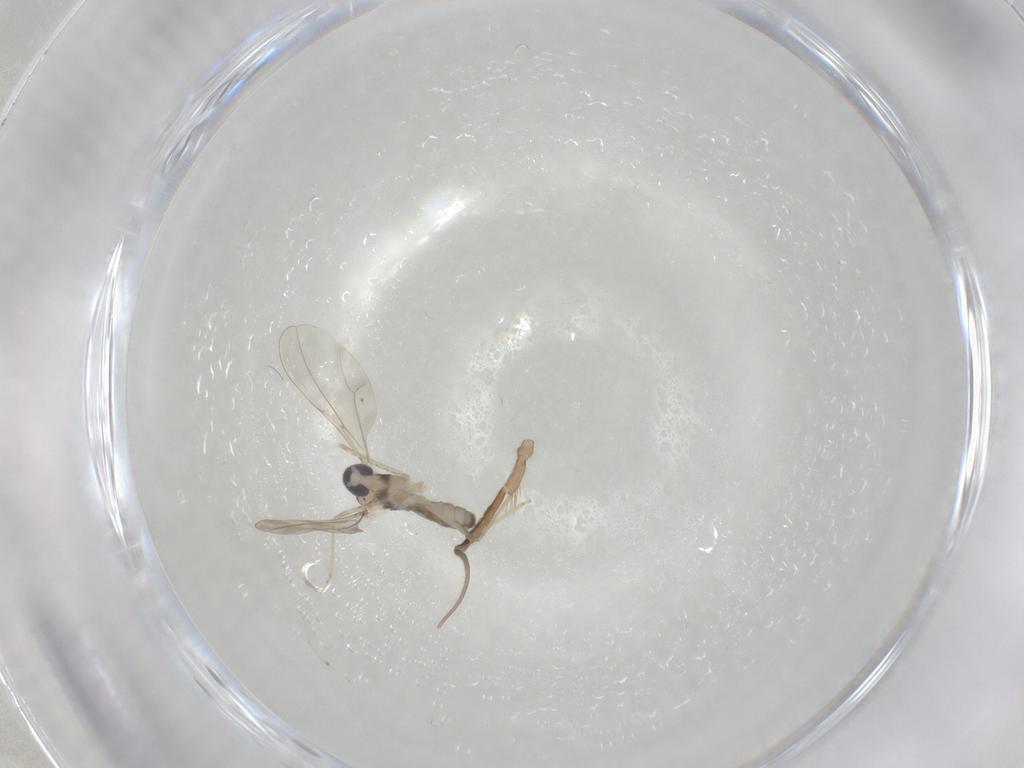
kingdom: Animalia
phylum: Arthropoda
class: Insecta
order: Diptera
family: Cecidomyiidae
